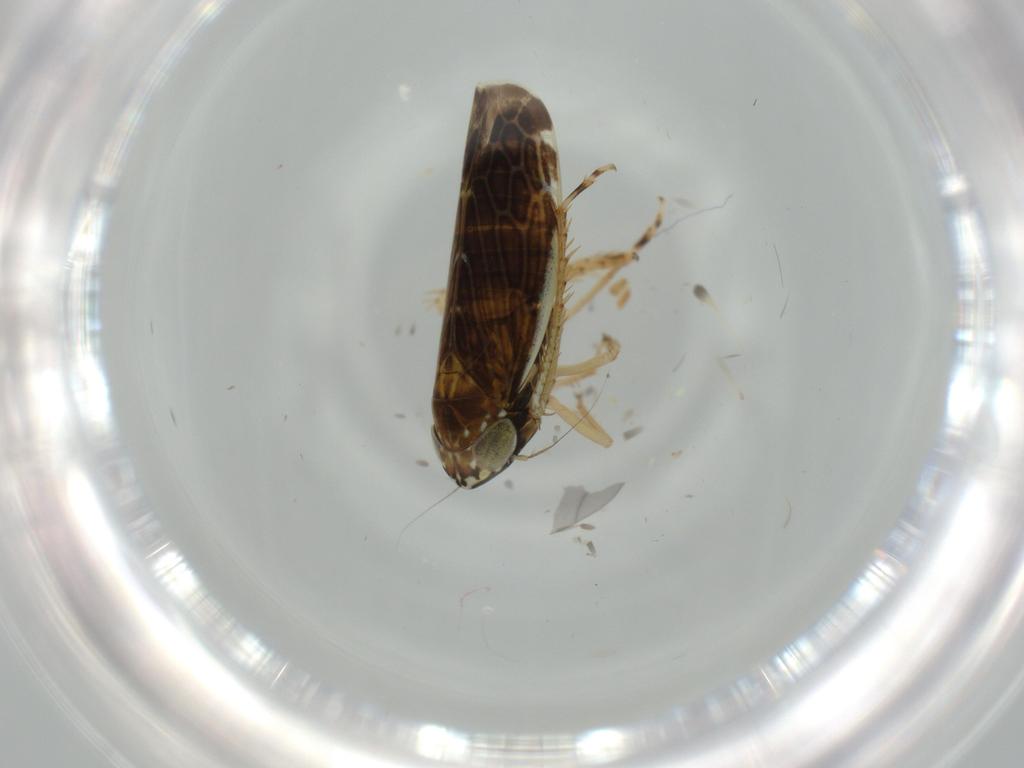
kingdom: Animalia
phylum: Arthropoda
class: Insecta
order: Hemiptera
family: Cicadellidae
